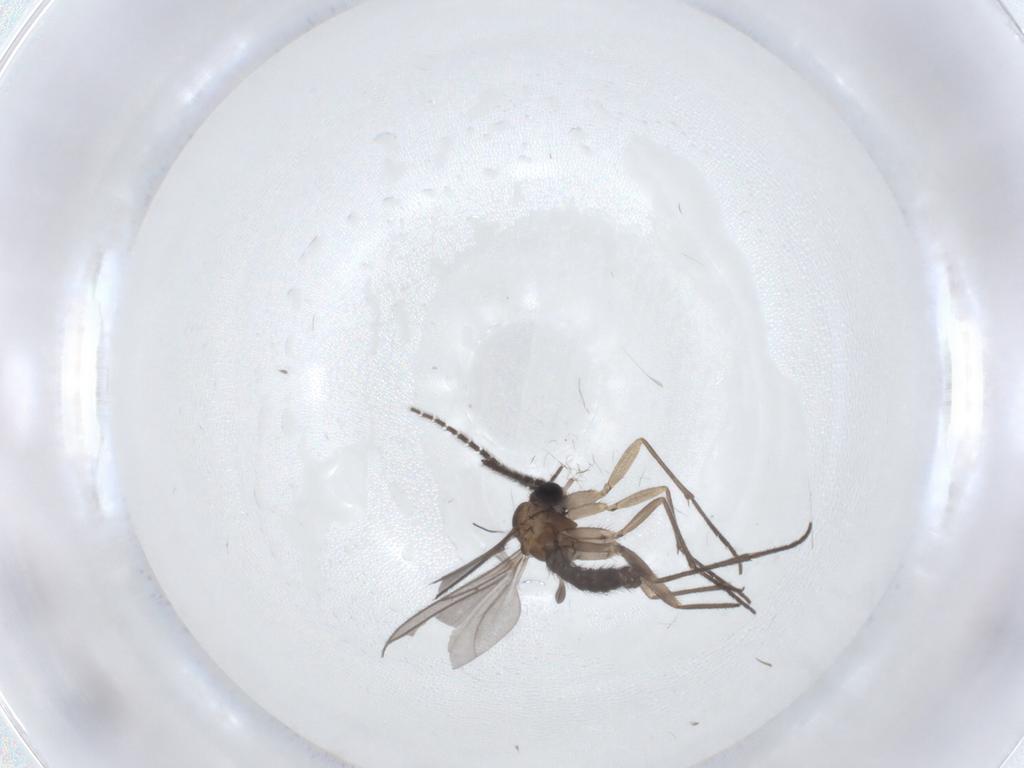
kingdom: Animalia
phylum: Arthropoda
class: Insecta
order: Diptera
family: Sciaridae
